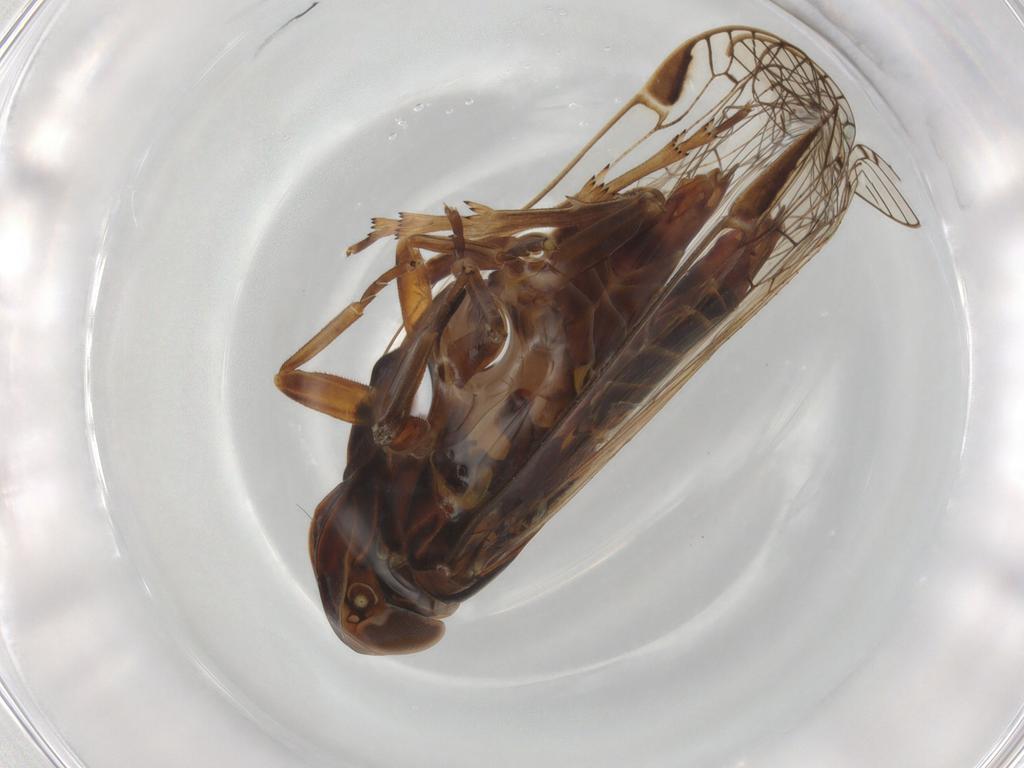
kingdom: Animalia
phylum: Arthropoda
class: Insecta
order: Hemiptera
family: Cixiidae
